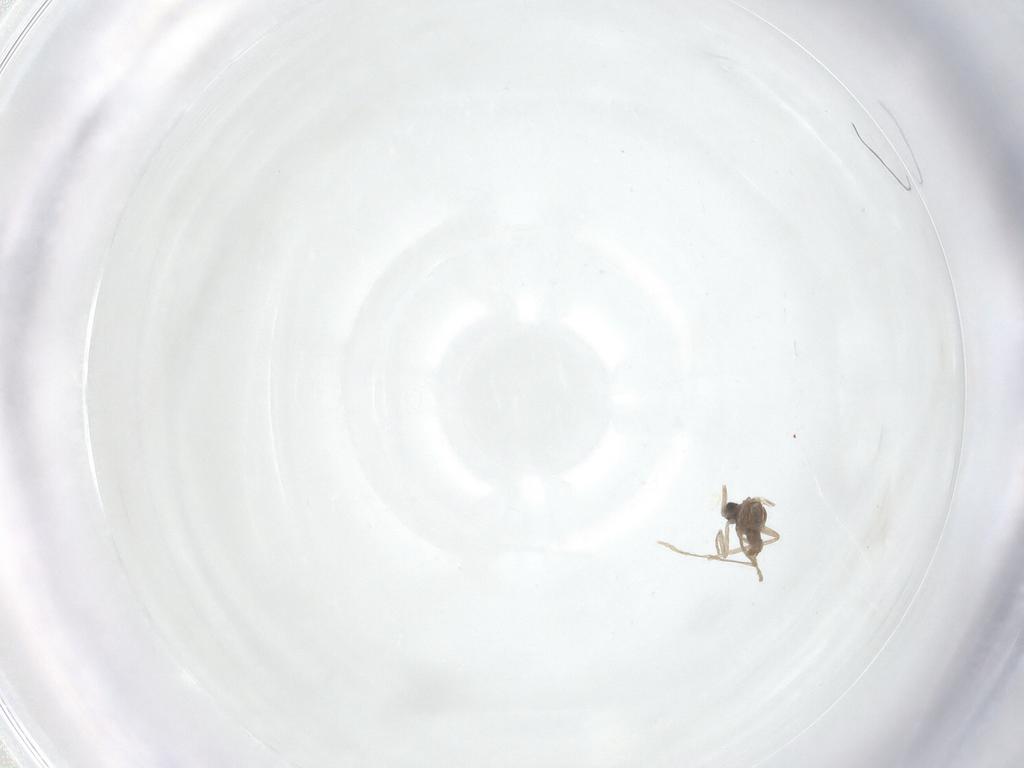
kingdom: Animalia
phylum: Arthropoda
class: Insecta
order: Diptera
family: Cecidomyiidae
